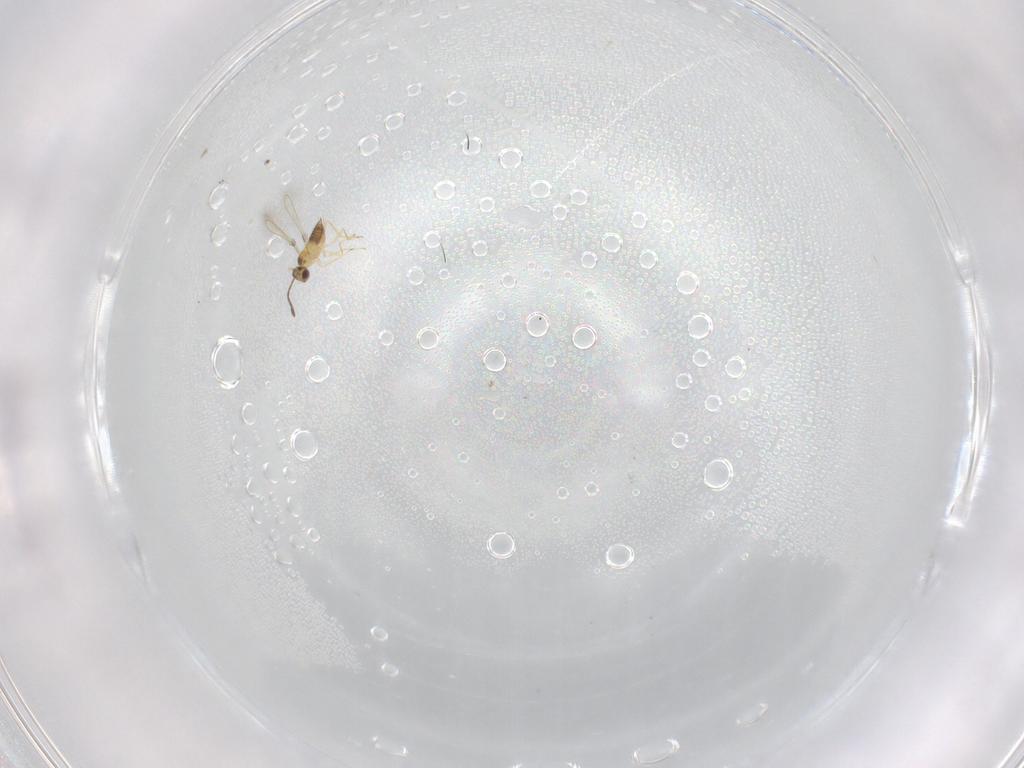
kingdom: Animalia
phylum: Arthropoda
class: Insecta
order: Hymenoptera
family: Mymaridae
